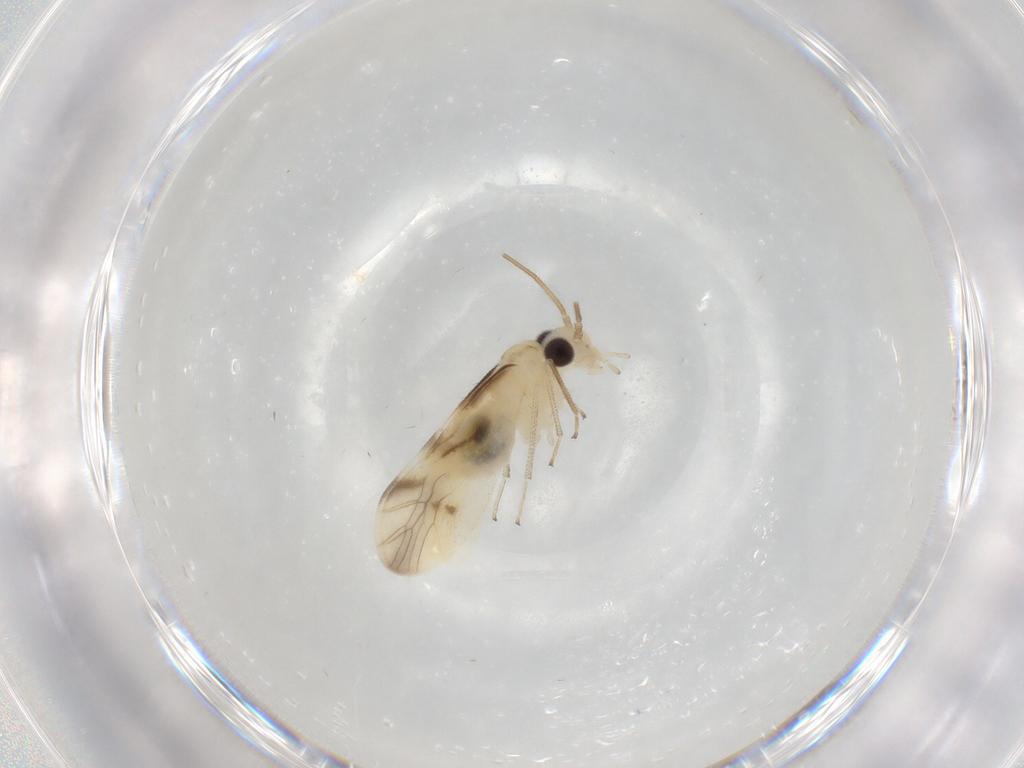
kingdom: Animalia
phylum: Arthropoda
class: Insecta
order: Psocodea
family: Caeciliusidae
